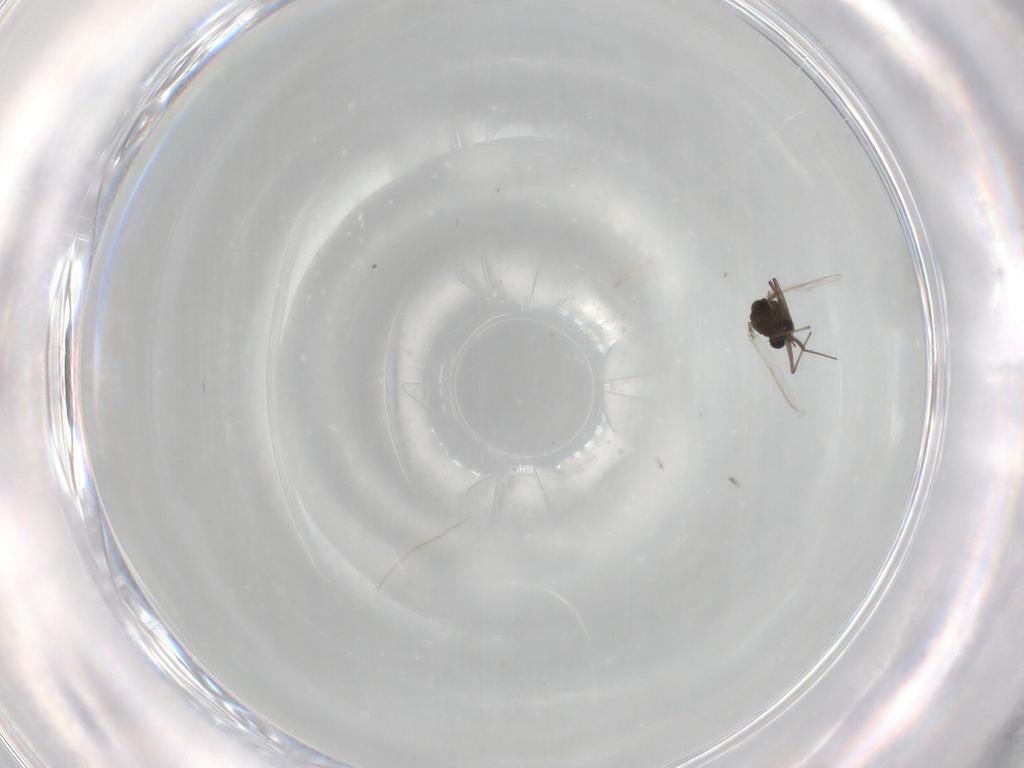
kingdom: Animalia
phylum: Arthropoda
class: Insecta
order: Diptera
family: Chironomidae
